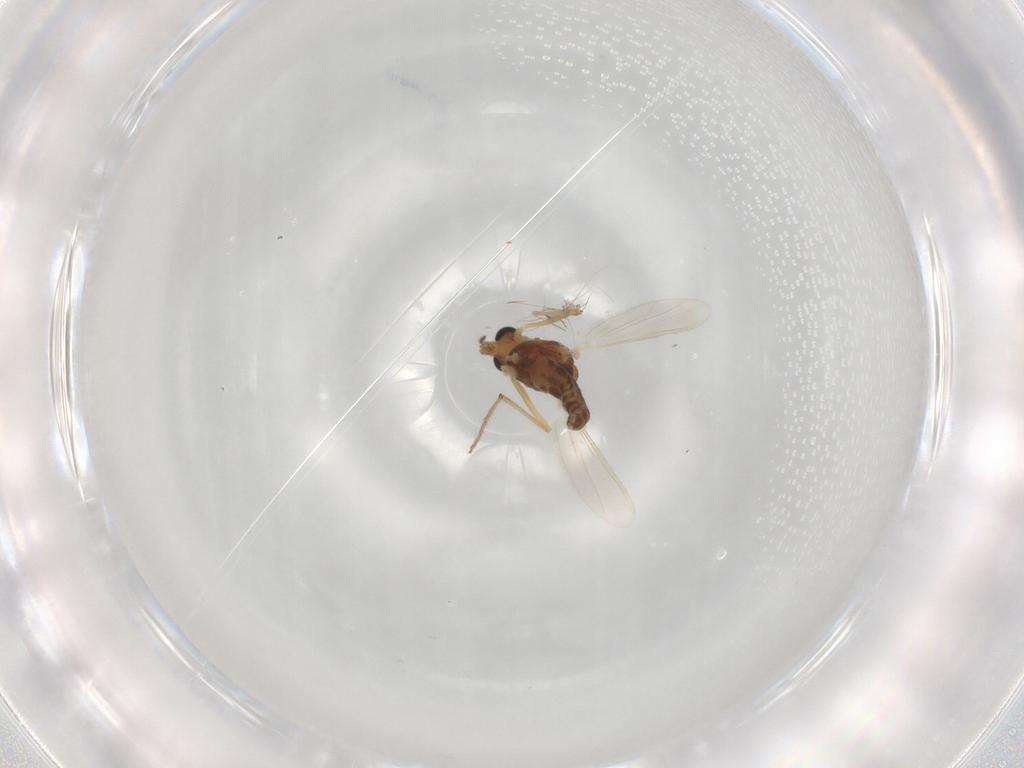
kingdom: Animalia
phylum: Arthropoda
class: Insecta
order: Diptera
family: Chironomidae
